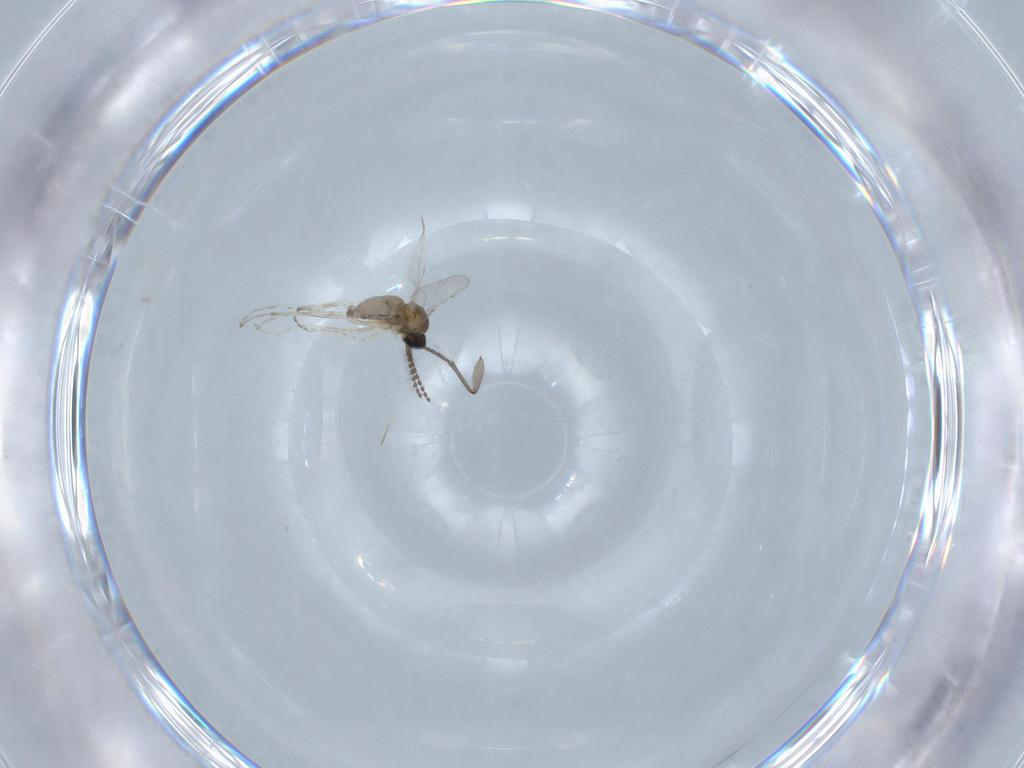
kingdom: Animalia
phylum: Arthropoda
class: Insecta
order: Diptera
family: Cecidomyiidae
